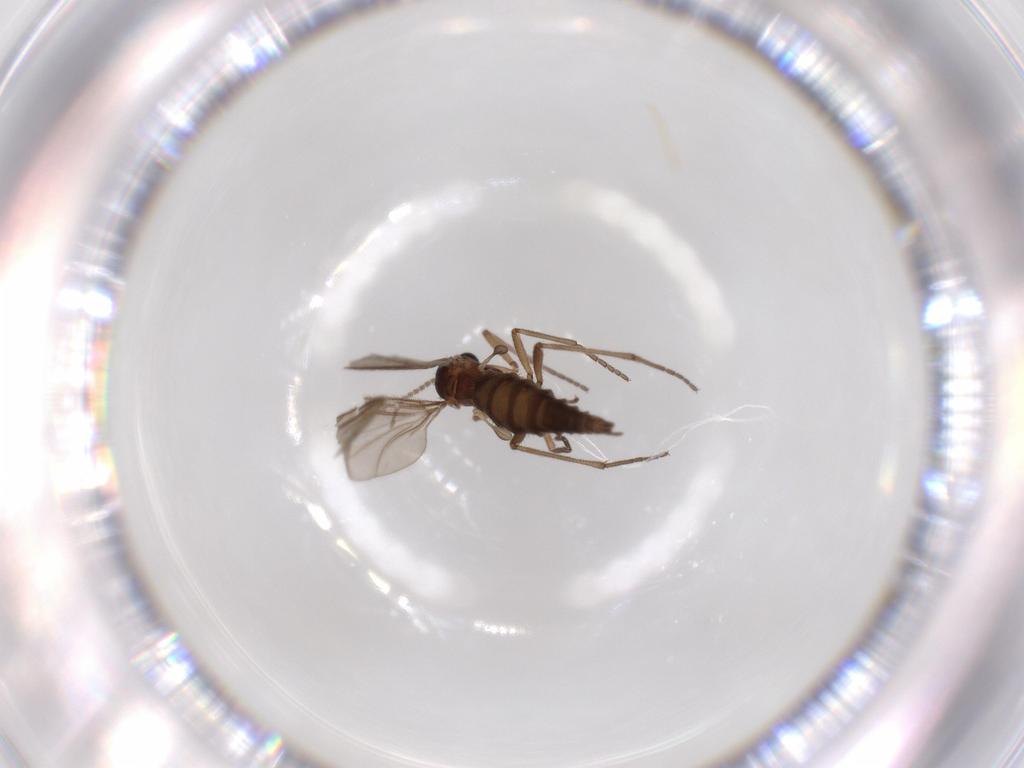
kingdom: Animalia
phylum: Arthropoda
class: Insecta
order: Diptera
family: Sciaridae
